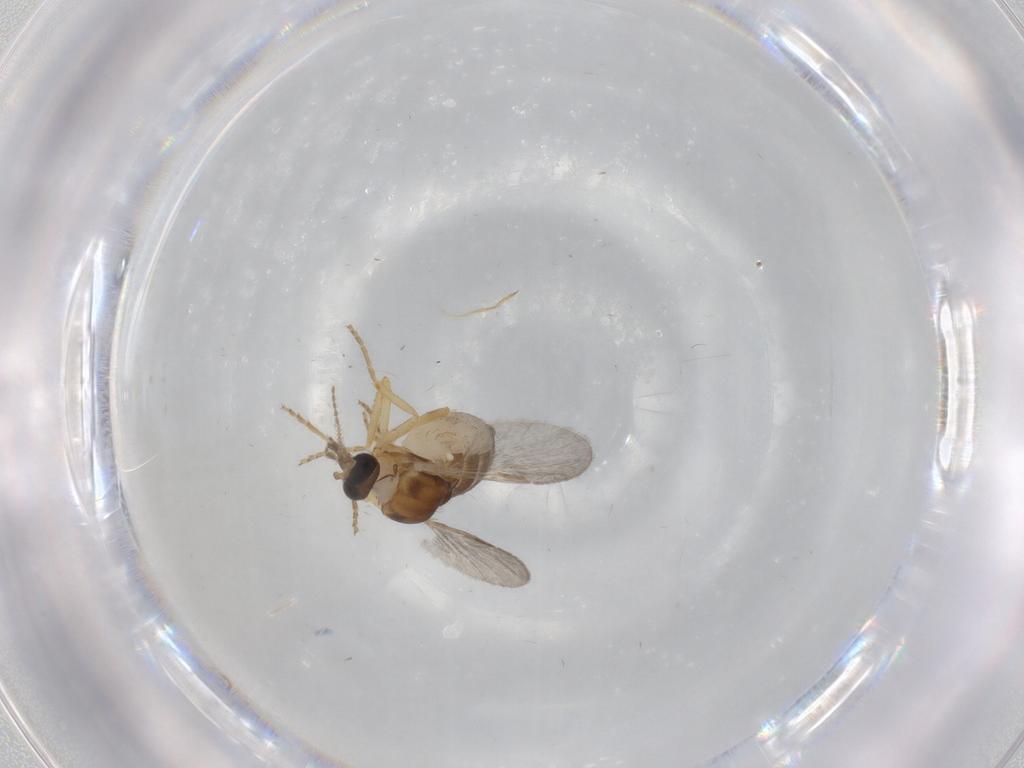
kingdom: Animalia
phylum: Arthropoda
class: Insecta
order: Diptera
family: Ceratopogonidae
